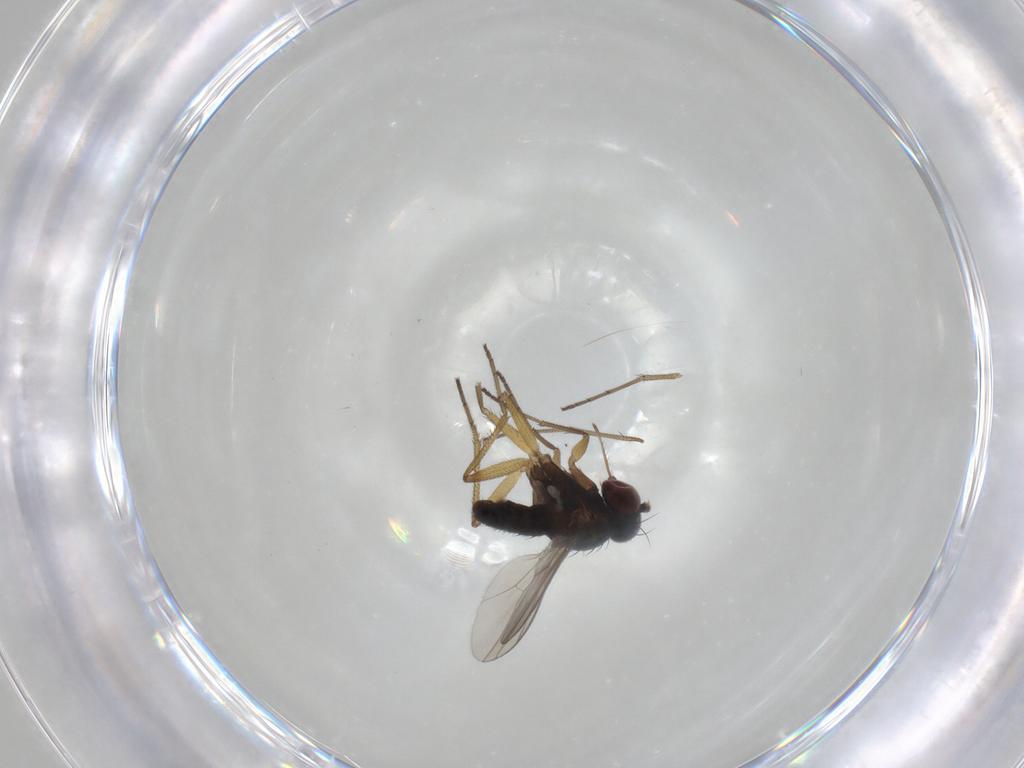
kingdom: Animalia
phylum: Arthropoda
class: Insecta
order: Diptera
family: Dolichopodidae
